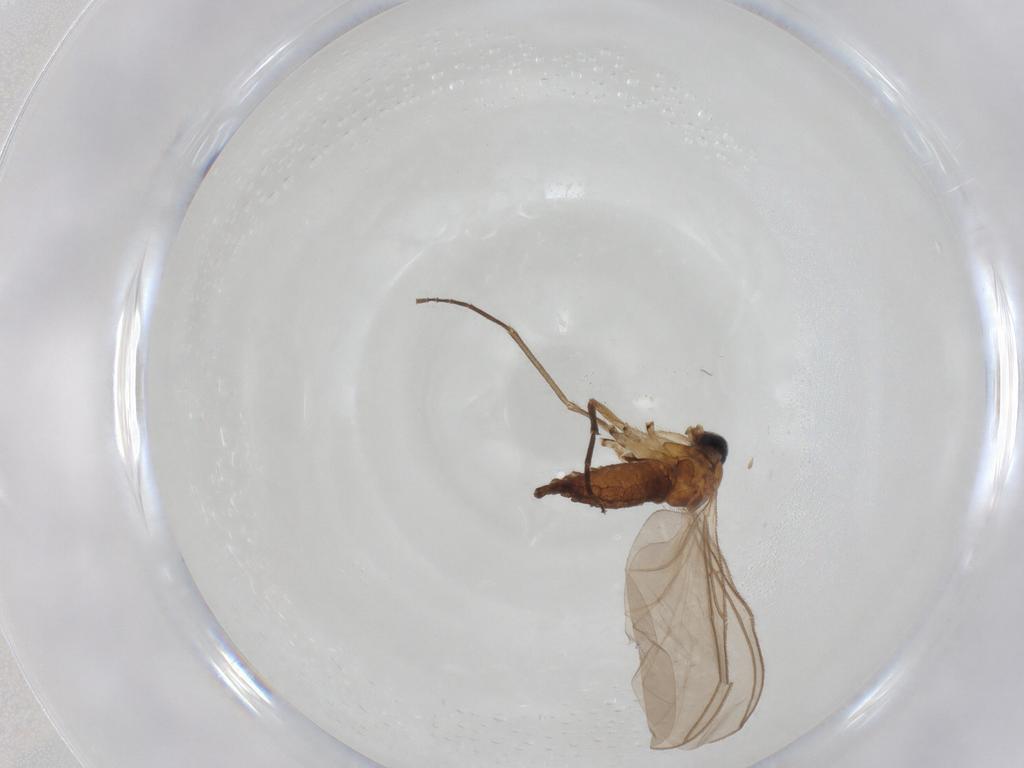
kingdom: Animalia
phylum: Arthropoda
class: Insecta
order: Diptera
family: Sciaridae
